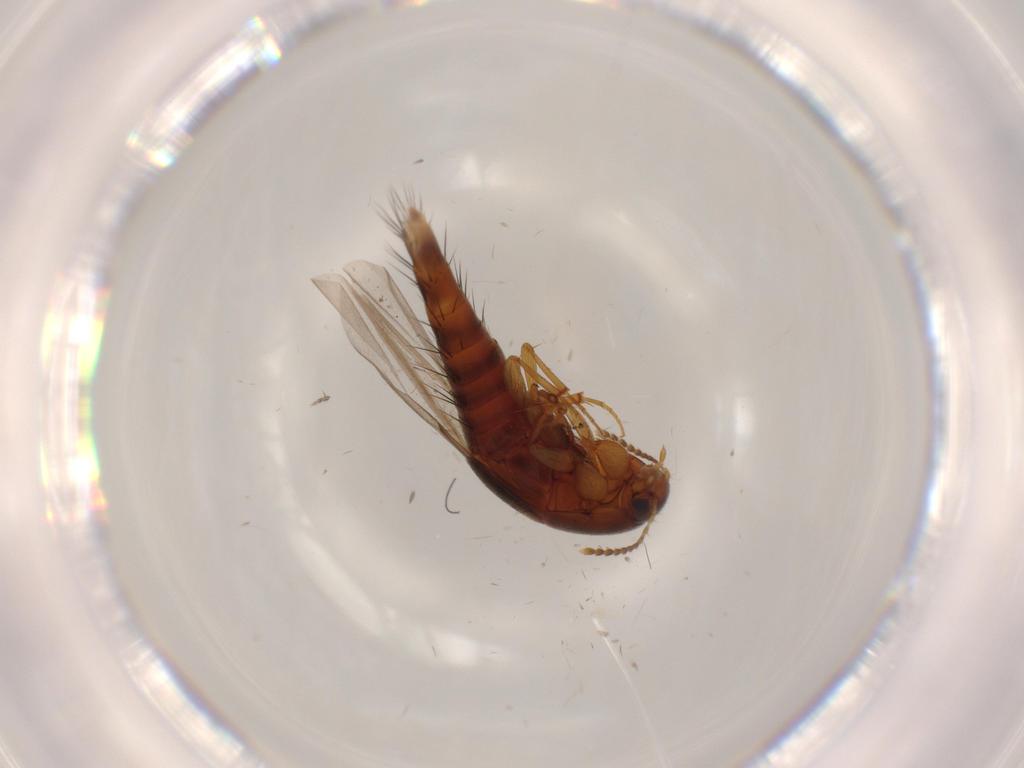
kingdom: Animalia
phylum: Arthropoda
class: Insecta
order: Coleoptera
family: Staphylinidae
